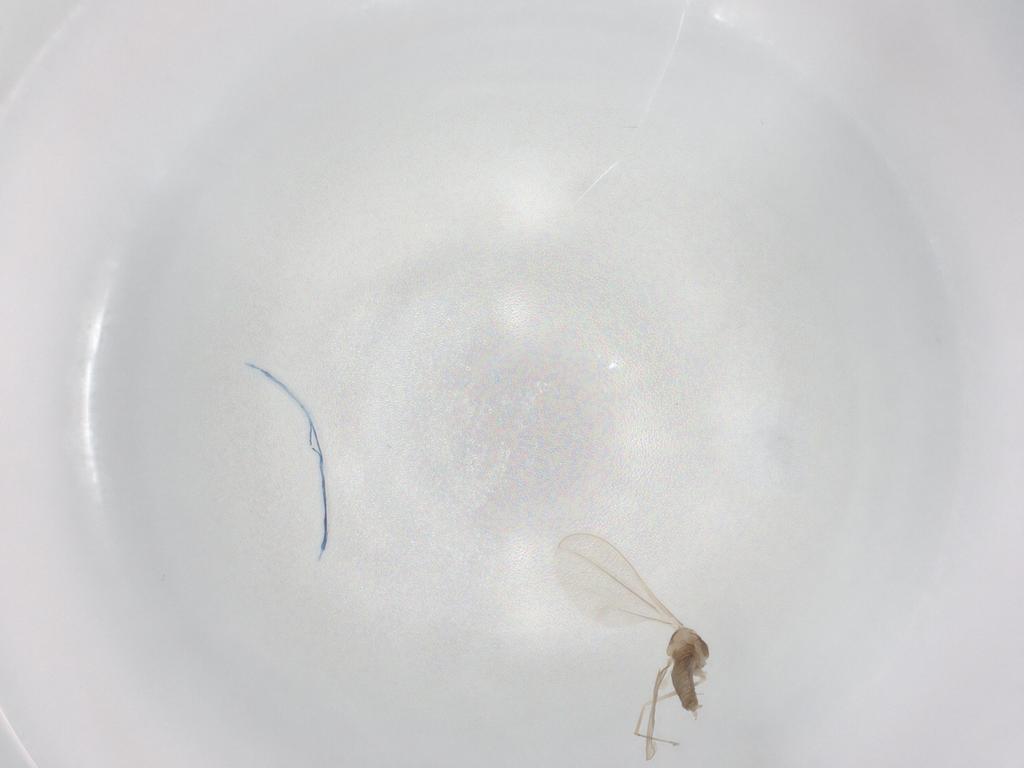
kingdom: Animalia
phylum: Arthropoda
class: Insecta
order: Diptera
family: Cecidomyiidae
